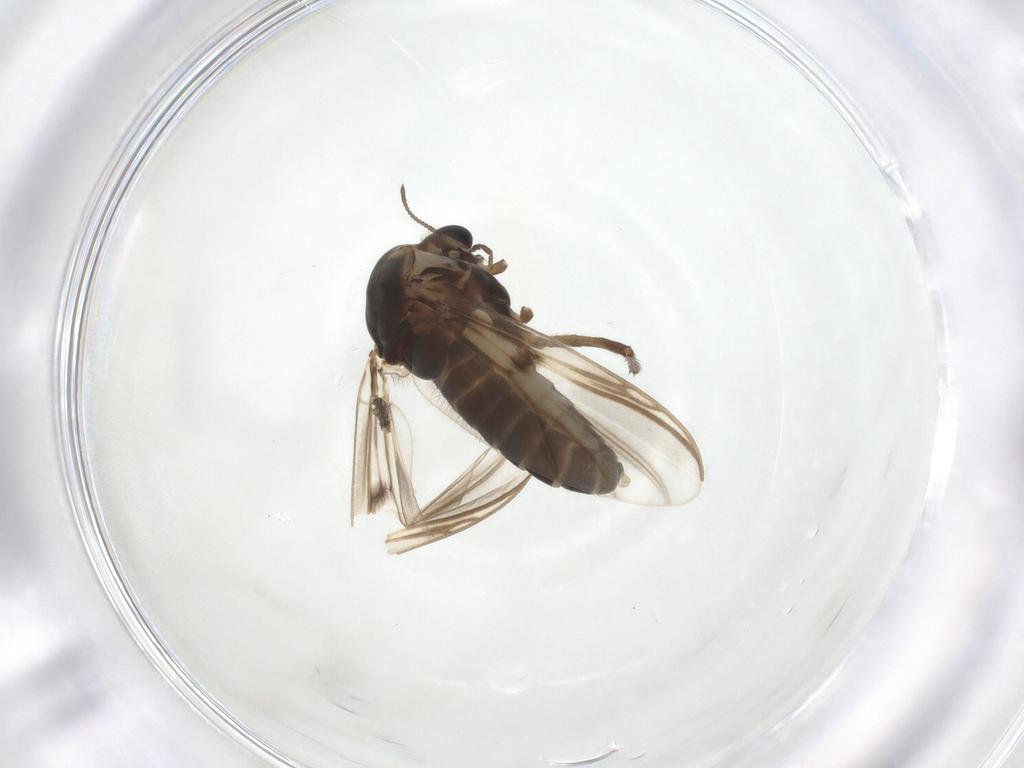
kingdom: Animalia
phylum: Arthropoda
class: Insecta
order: Diptera
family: Chironomidae
